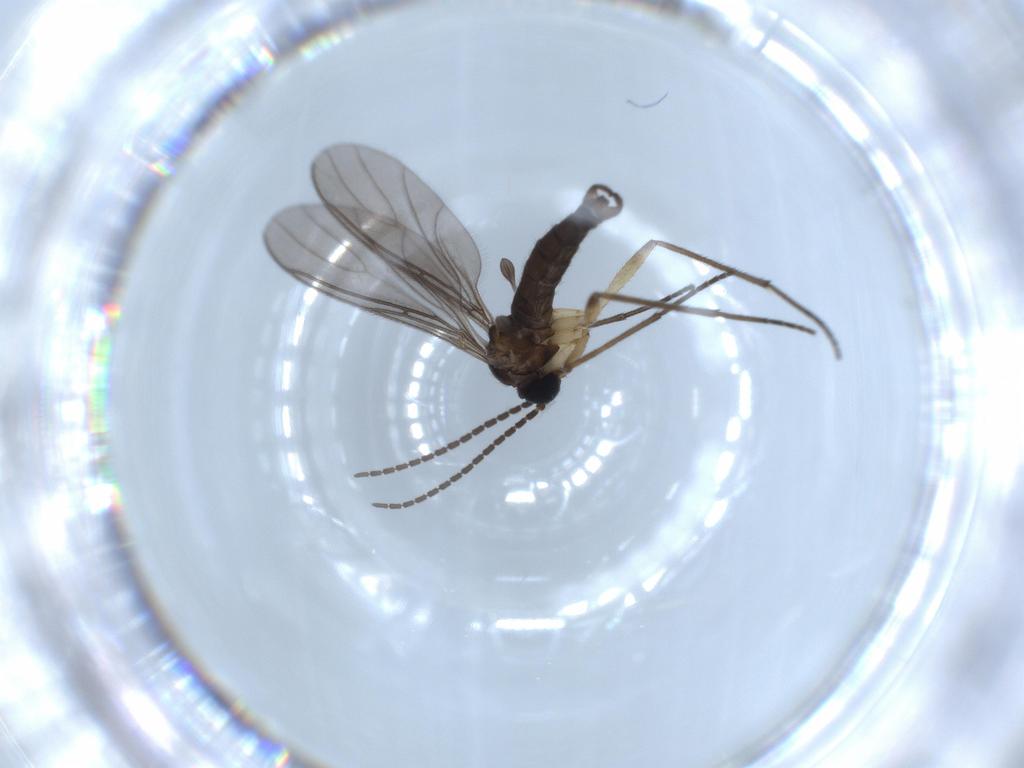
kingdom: Animalia
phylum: Arthropoda
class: Insecta
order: Diptera
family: Sciaridae
